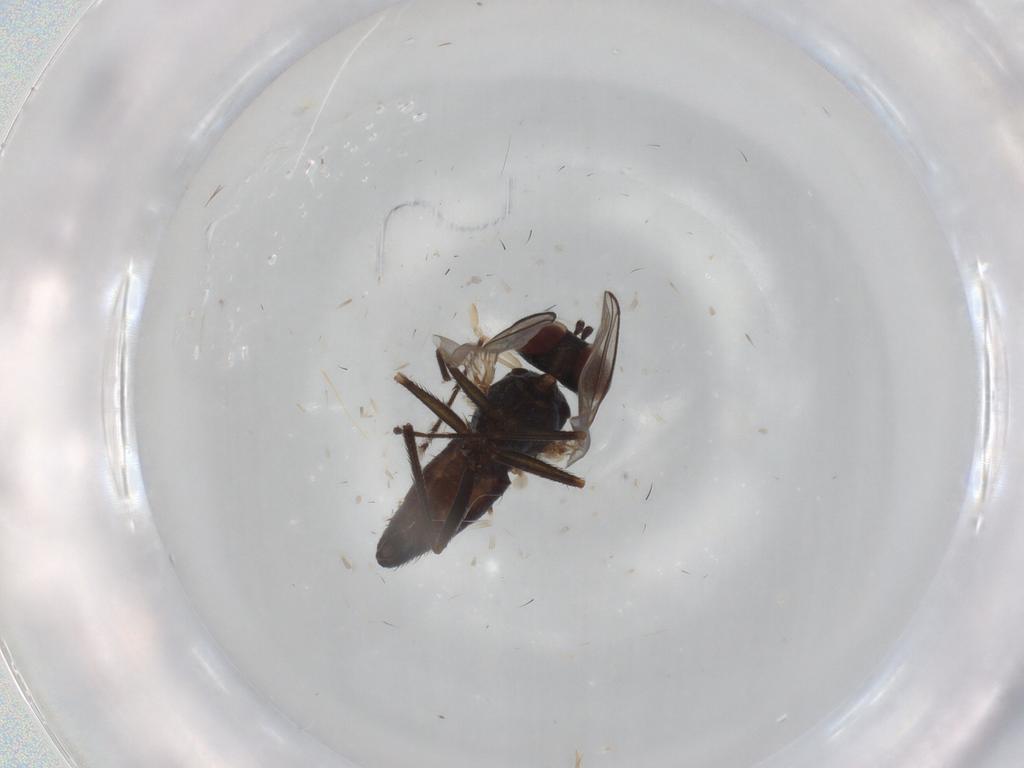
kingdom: Animalia
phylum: Arthropoda
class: Insecta
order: Diptera
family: Dolichopodidae
